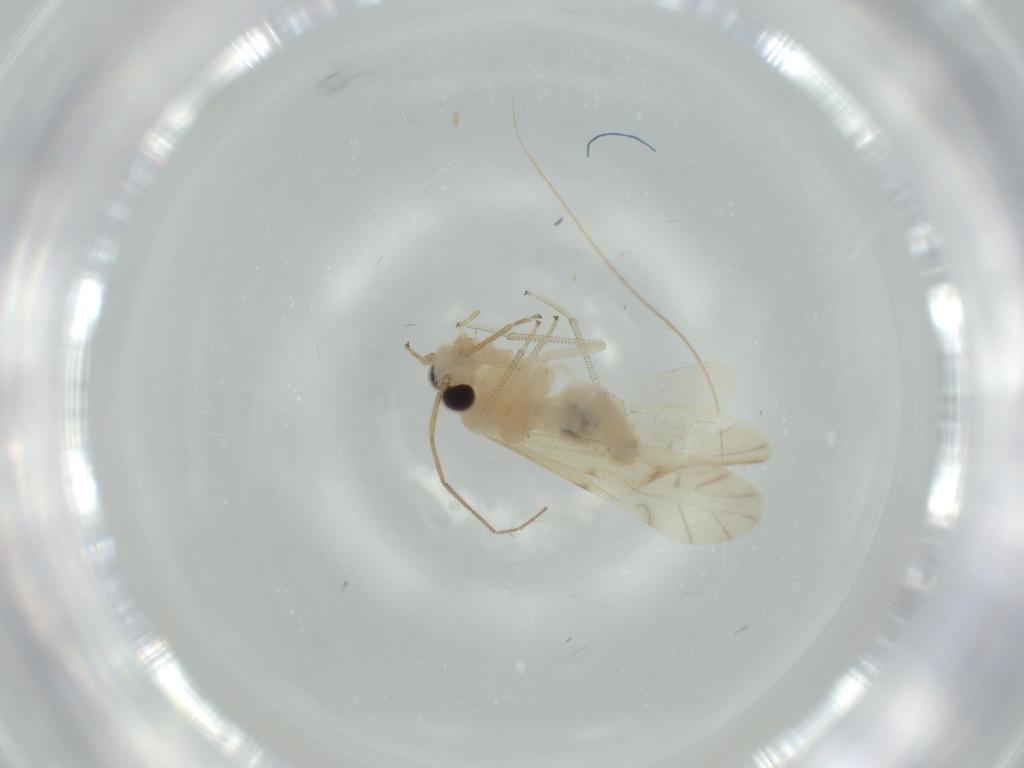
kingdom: Animalia
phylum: Arthropoda
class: Insecta
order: Psocodea
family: Caeciliusidae
